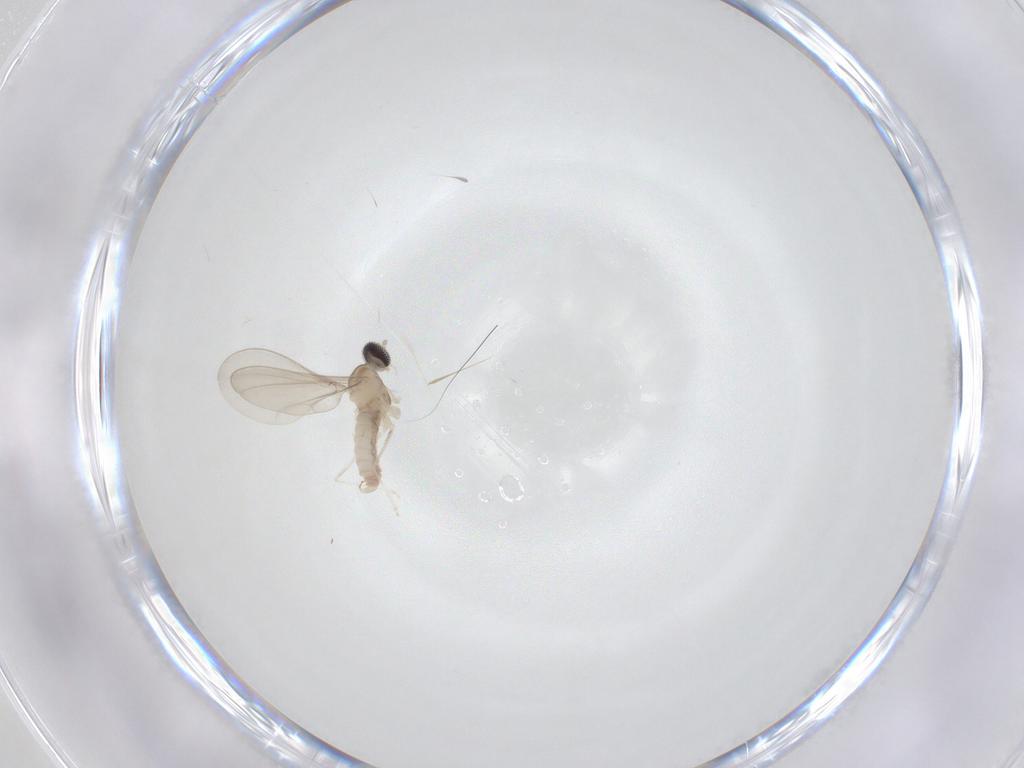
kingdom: Animalia
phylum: Arthropoda
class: Insecta
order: Diptera
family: Cecidomyiidae
